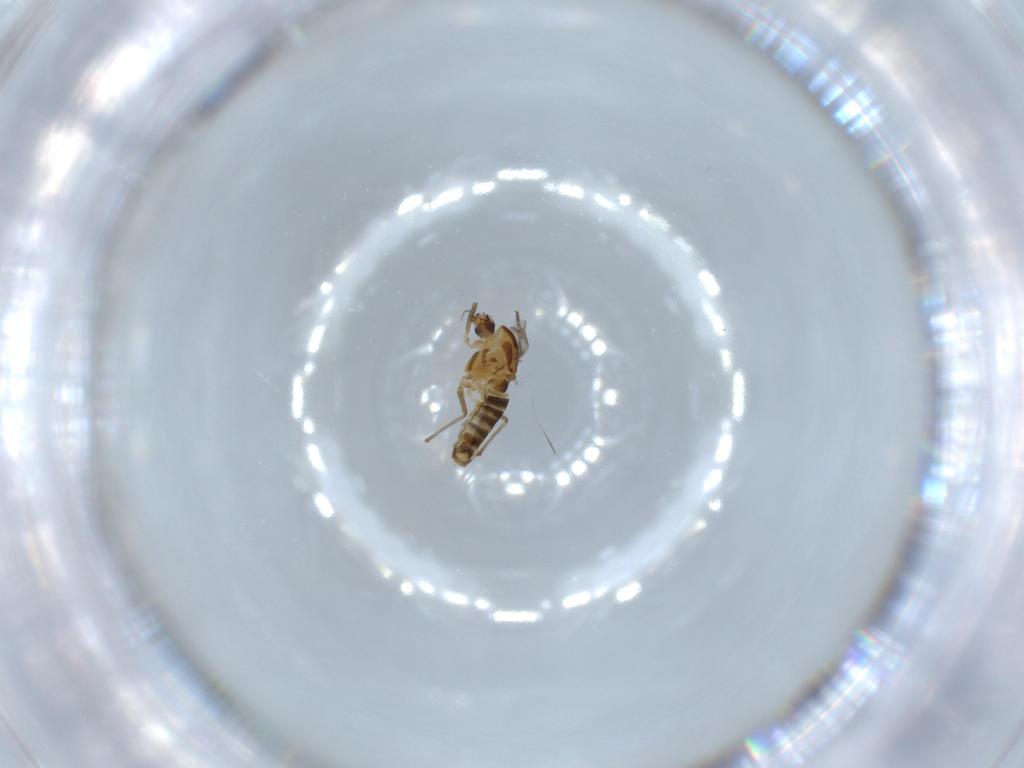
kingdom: Animalia
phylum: Arthropoda
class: Insecta
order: Diptera
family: Chironomidae
